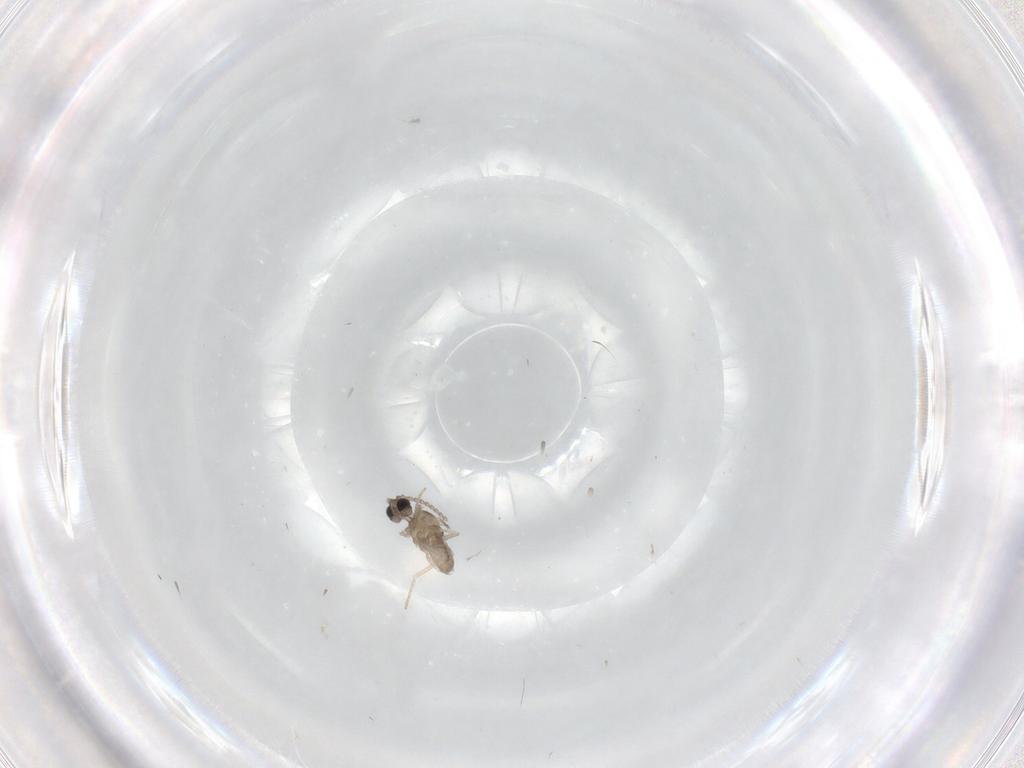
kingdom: Animalia
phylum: Arthropoda
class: Insecta
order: Diptera
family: Cecidomyiidae
